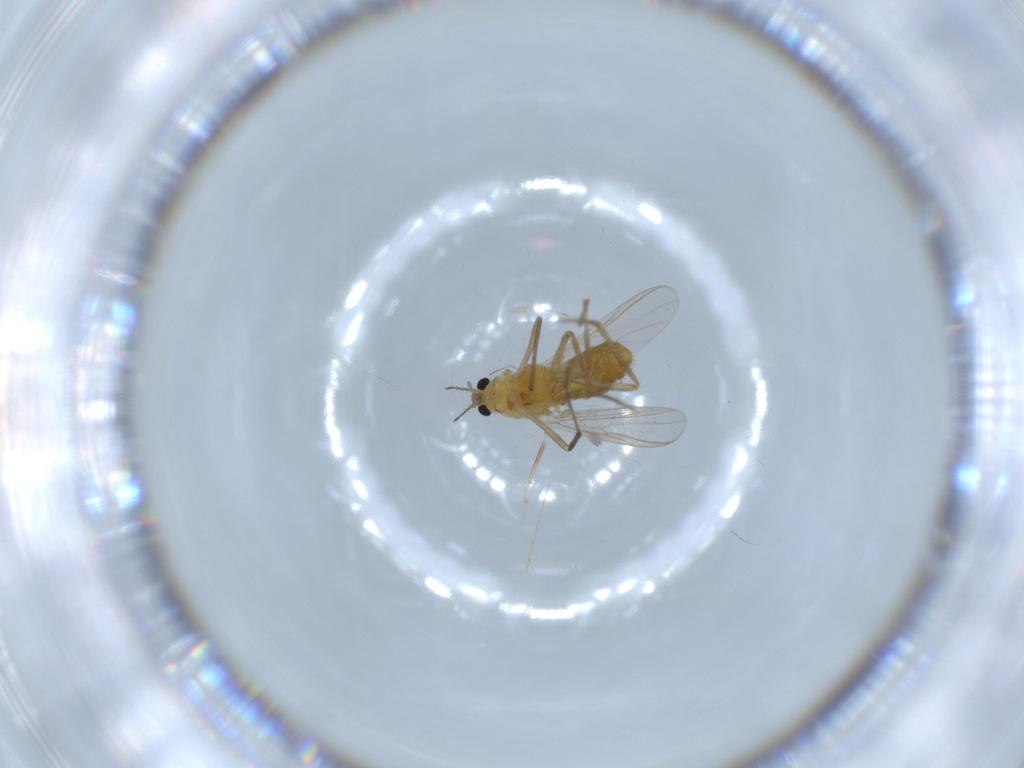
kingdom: Animalia
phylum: Arthropoda
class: Insecta
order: Diptera
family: Chironomidae
